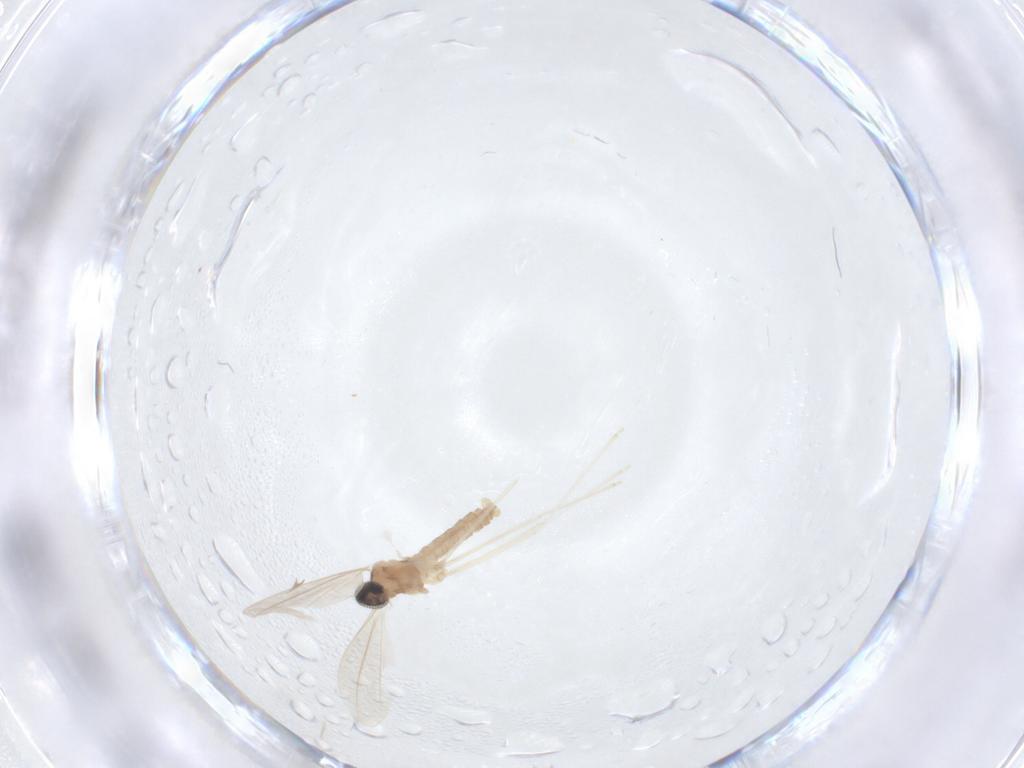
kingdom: Animalia
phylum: Arthropoda
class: Insecta
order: Diptera
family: Cecidomyiidae
